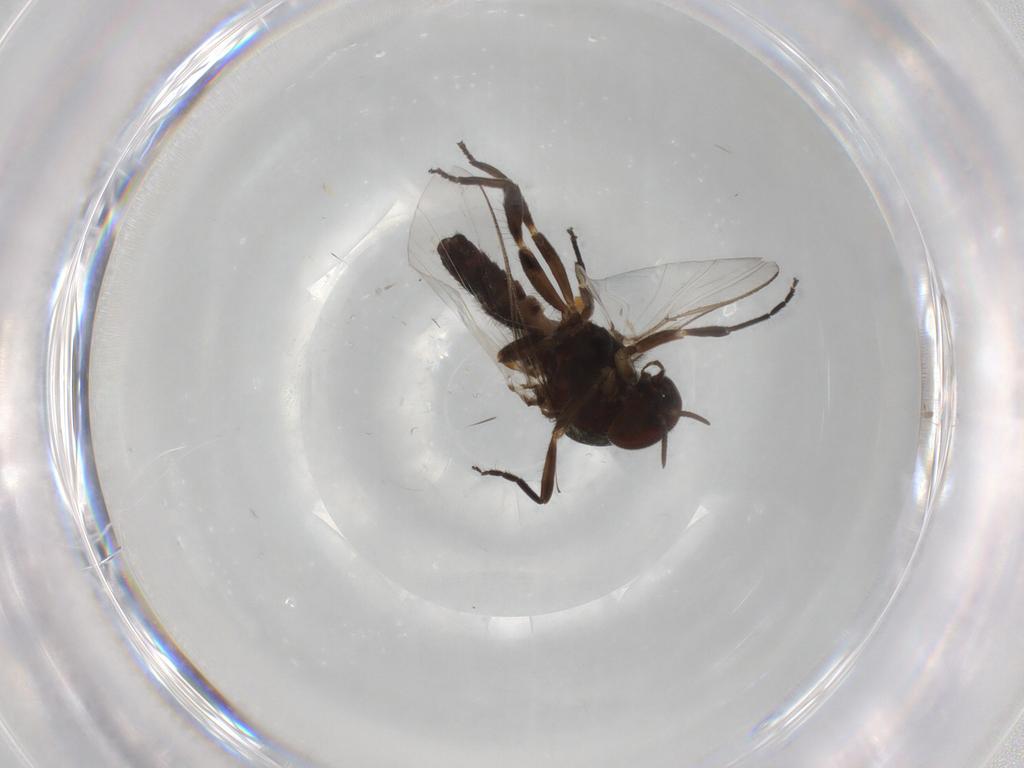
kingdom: Animalia
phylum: Arthropoda
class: Insecta
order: Diptera
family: Simuliidae
